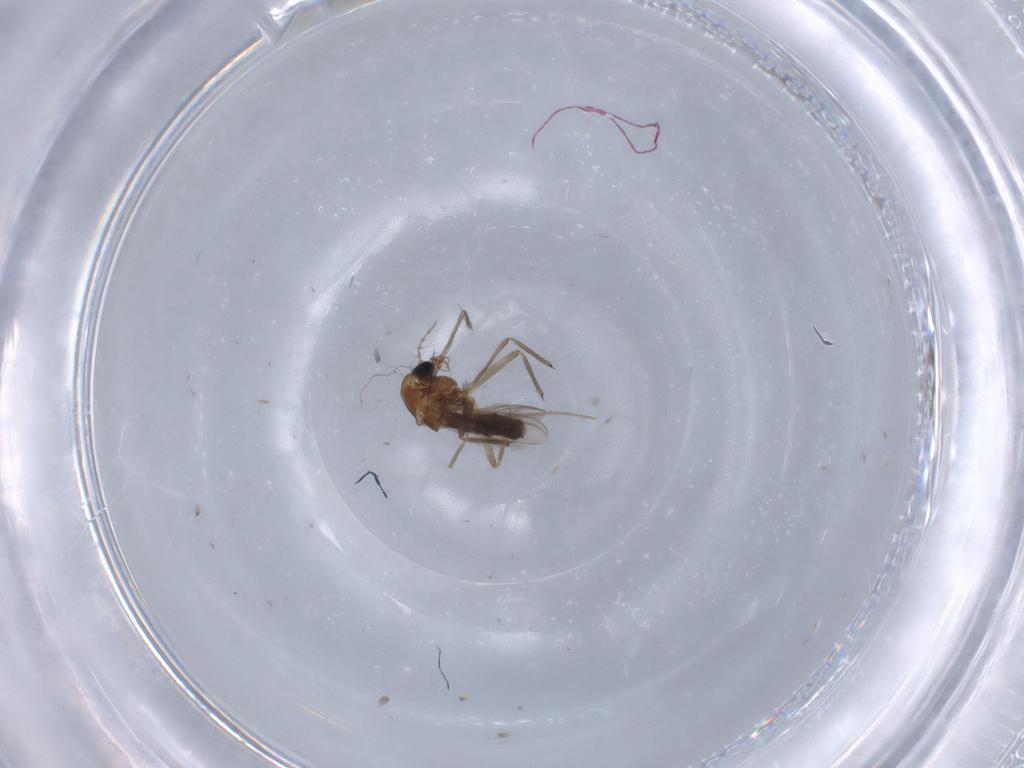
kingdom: Animalia
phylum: Arthropoda
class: Insecta
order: Diptera
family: Chironomidae
